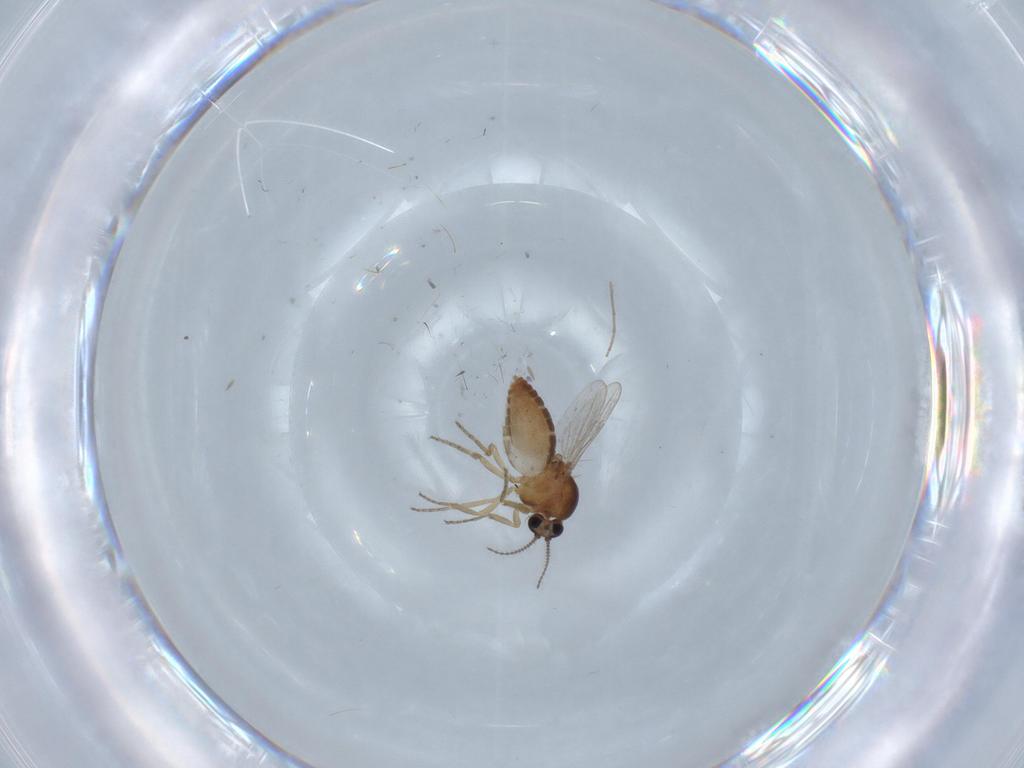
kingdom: Animalia
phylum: Arthropoda
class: Insecta
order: Diptera
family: Ceratopogonidae
